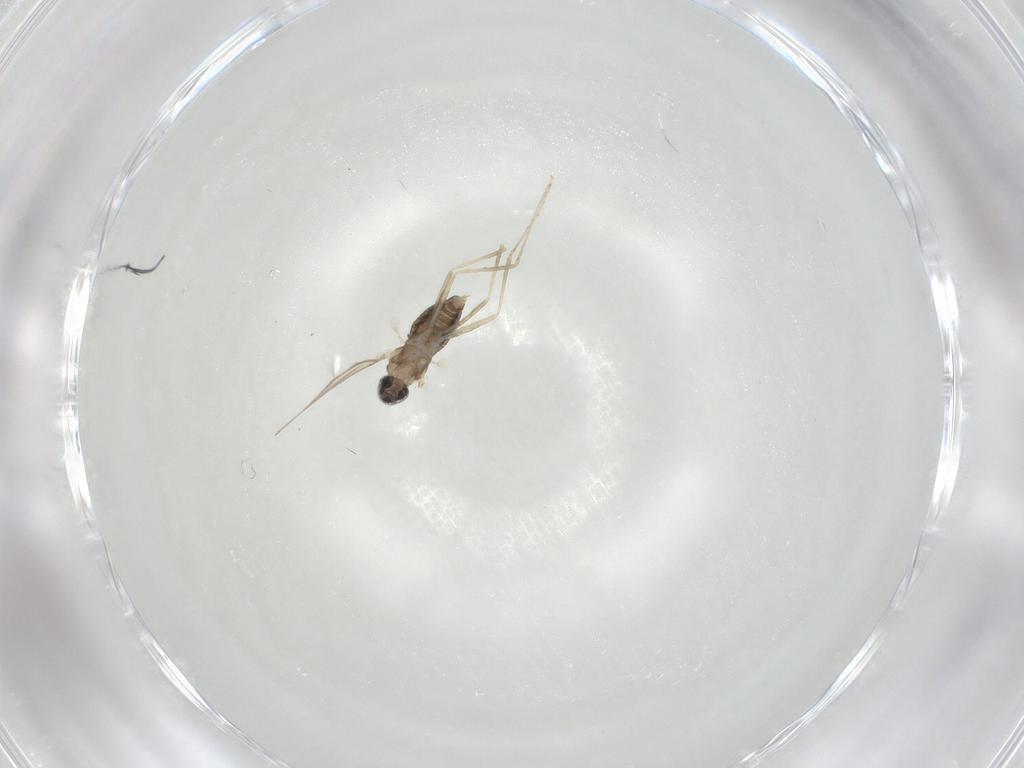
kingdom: Animalia
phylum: Arthropoda
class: Insecta
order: Diptera
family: Cecidomyiidae
